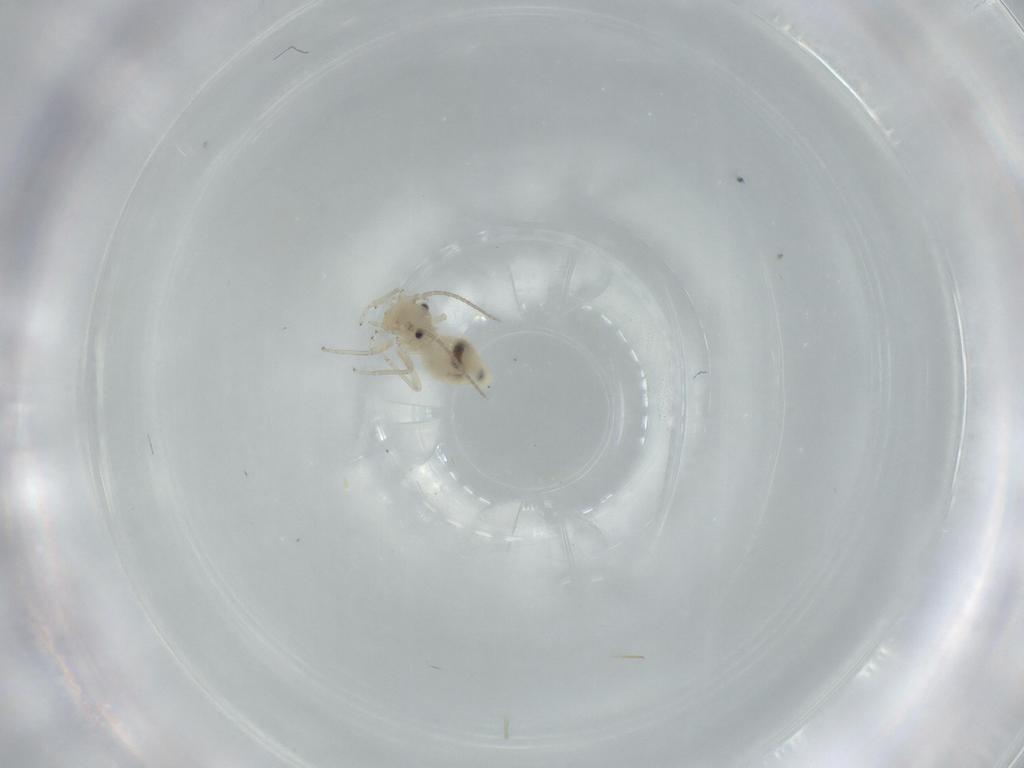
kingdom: Animalia
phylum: Arthropoda
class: Insecta
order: Psocodea
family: Caeciliusidae
